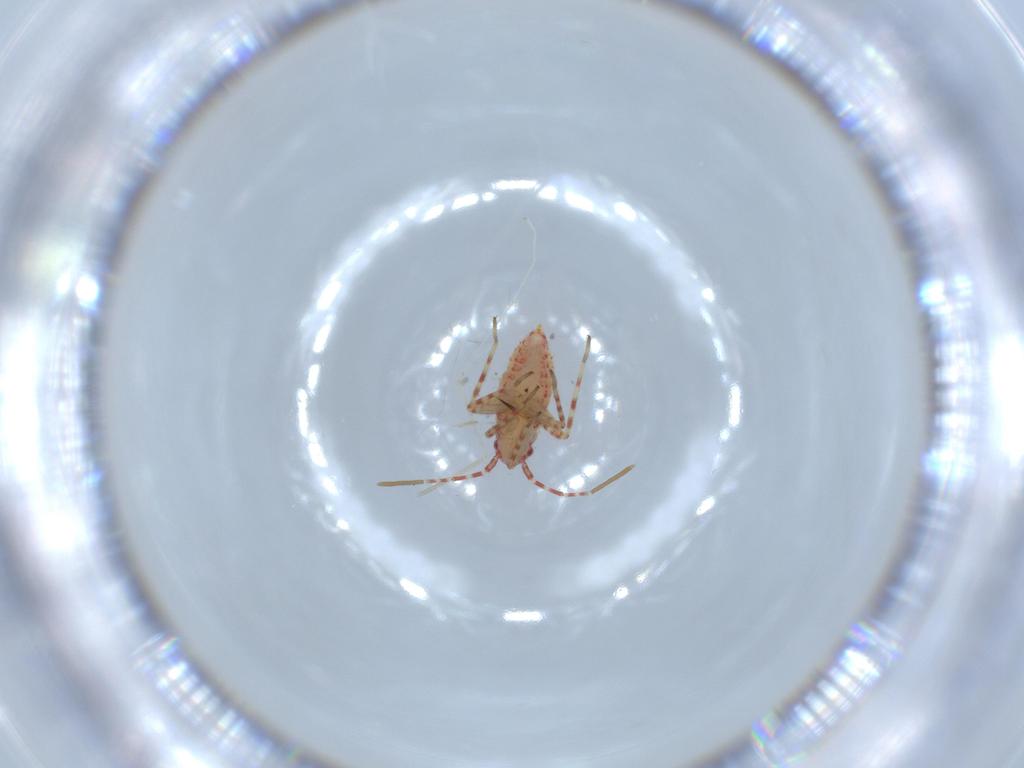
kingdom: Animalia
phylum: Arthropoda
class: Insecta
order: Hemiptera
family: Miridae
